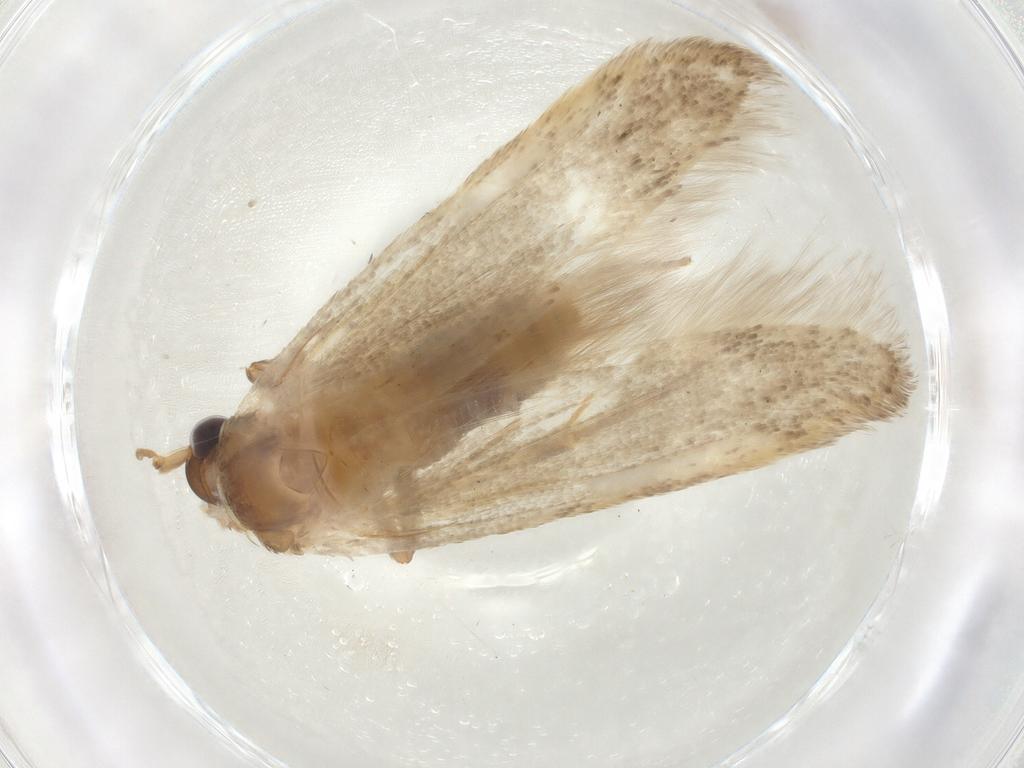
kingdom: Animalia
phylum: Arthropoda
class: Insecta
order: Lepidoptera
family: Coleophoridae
